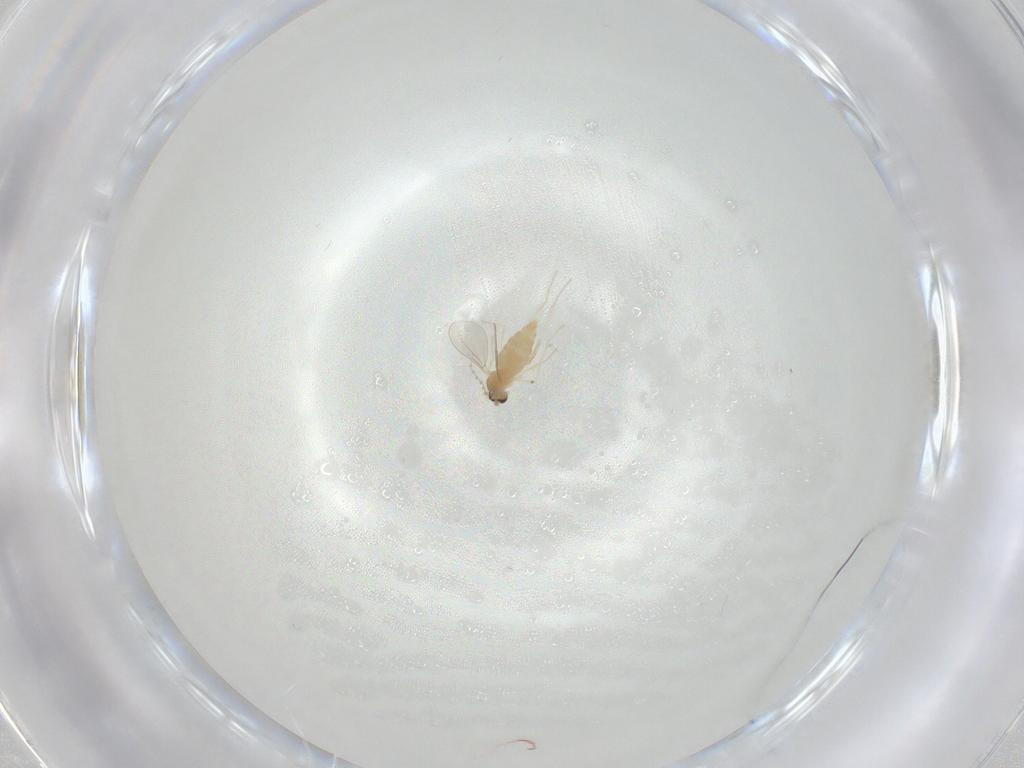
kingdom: Animalia
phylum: Arthropoda
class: Insecta
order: Diptera
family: Cecidomyiidae
